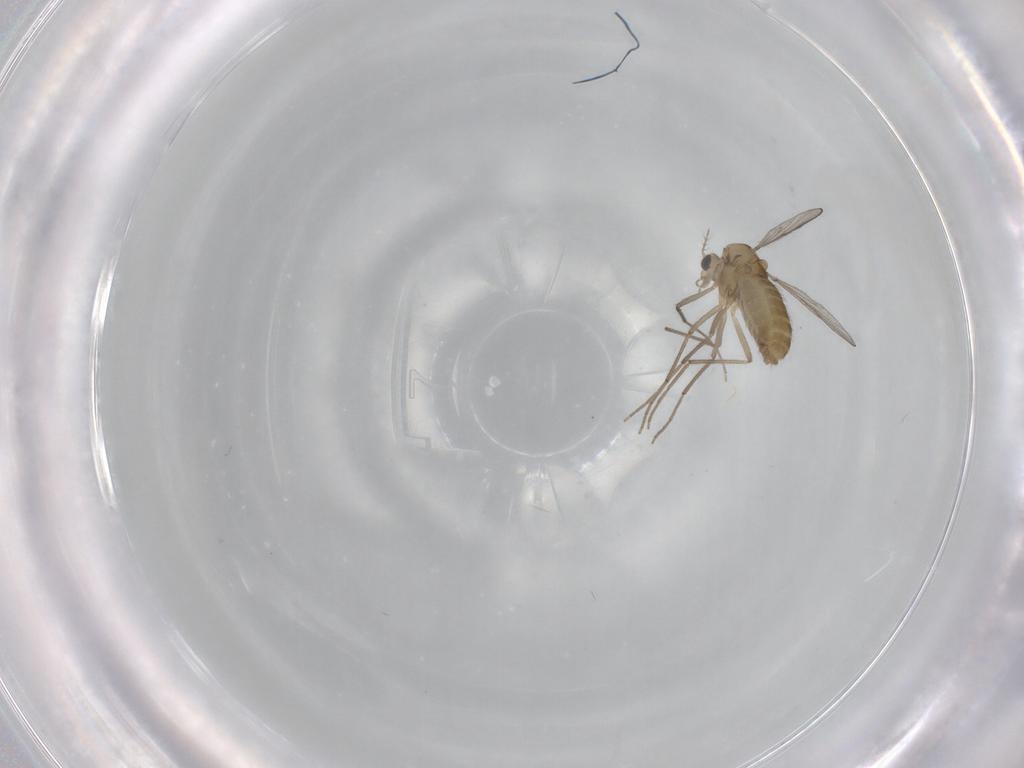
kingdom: Animalia
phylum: Arthropoda
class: Insecta
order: Diptera
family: Chironomidae
